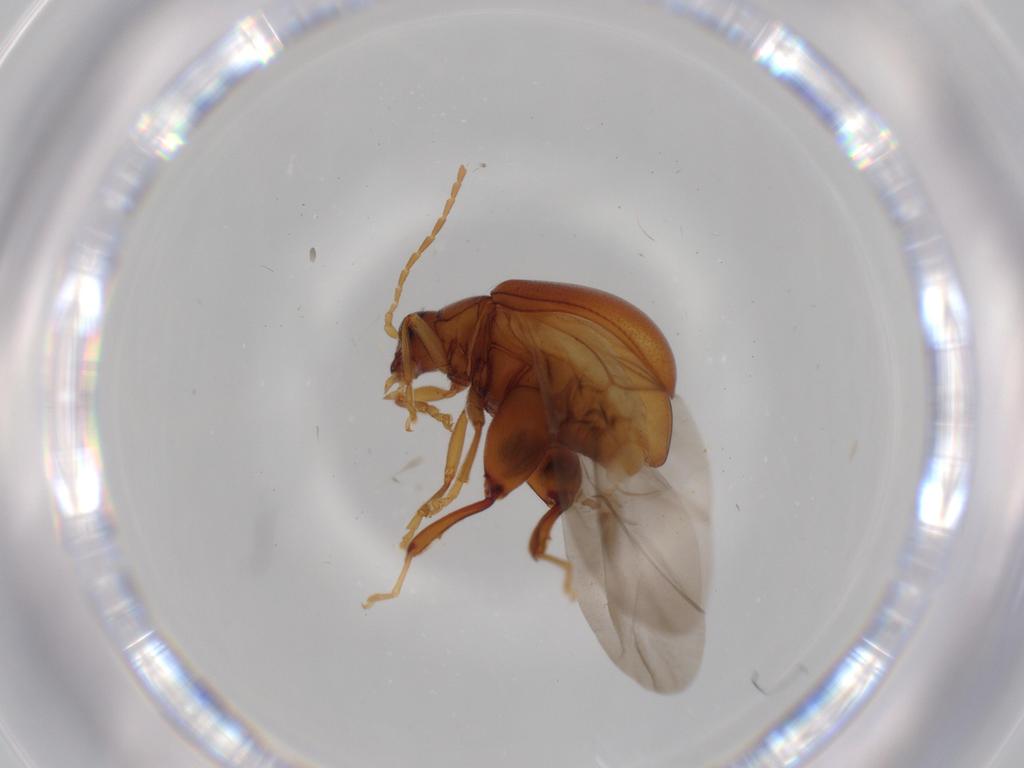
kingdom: Animalia
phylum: Arthropoda
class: Insecta
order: Coleoptera
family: Chrysomelidae
